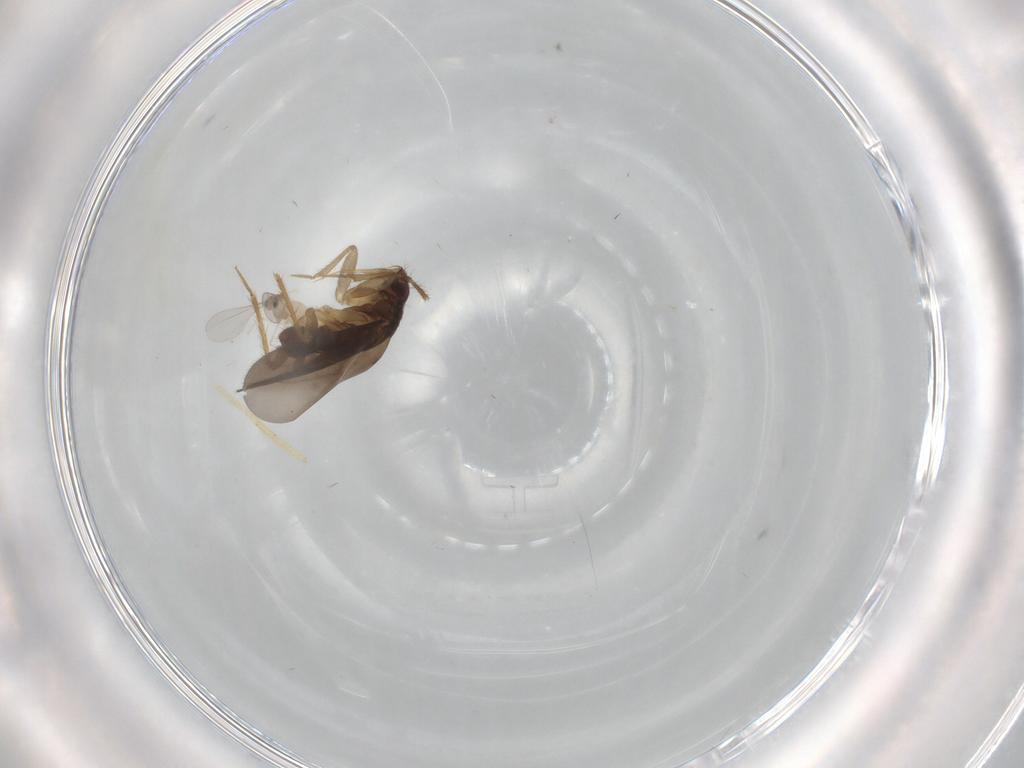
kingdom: Animalia
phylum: Arthropoda
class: Insecta
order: Diptera
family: Cecidomyiidae
